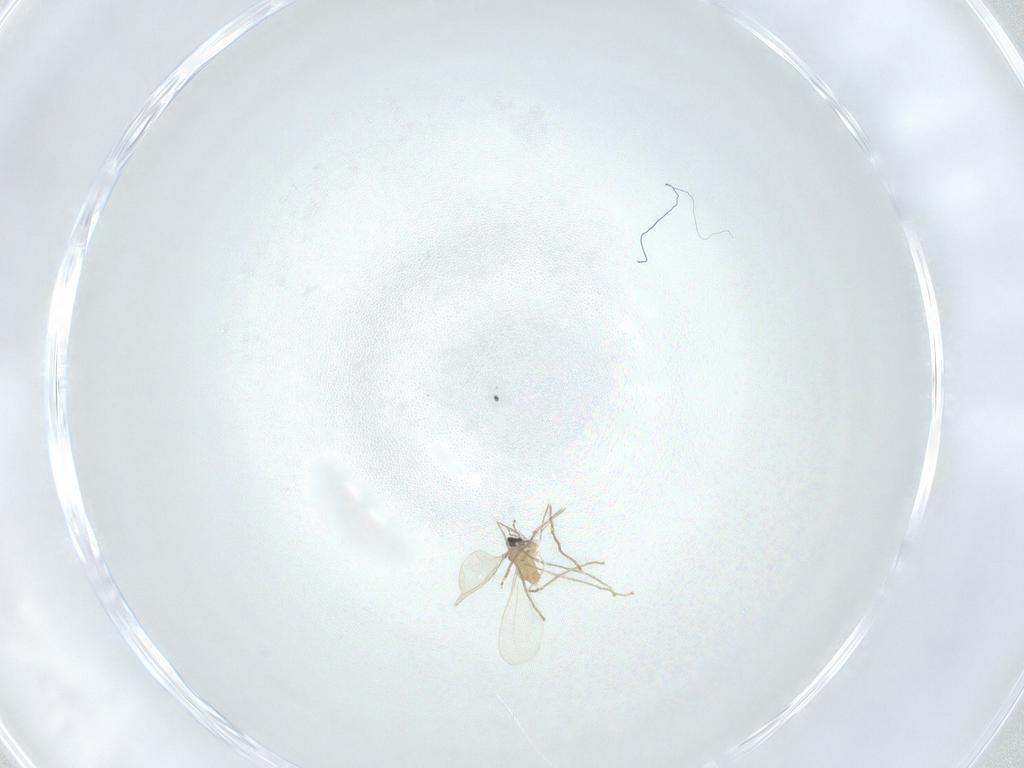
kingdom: Animalia
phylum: Arthropoda
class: Insecta
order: Diptera
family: Cecidomyiidae
